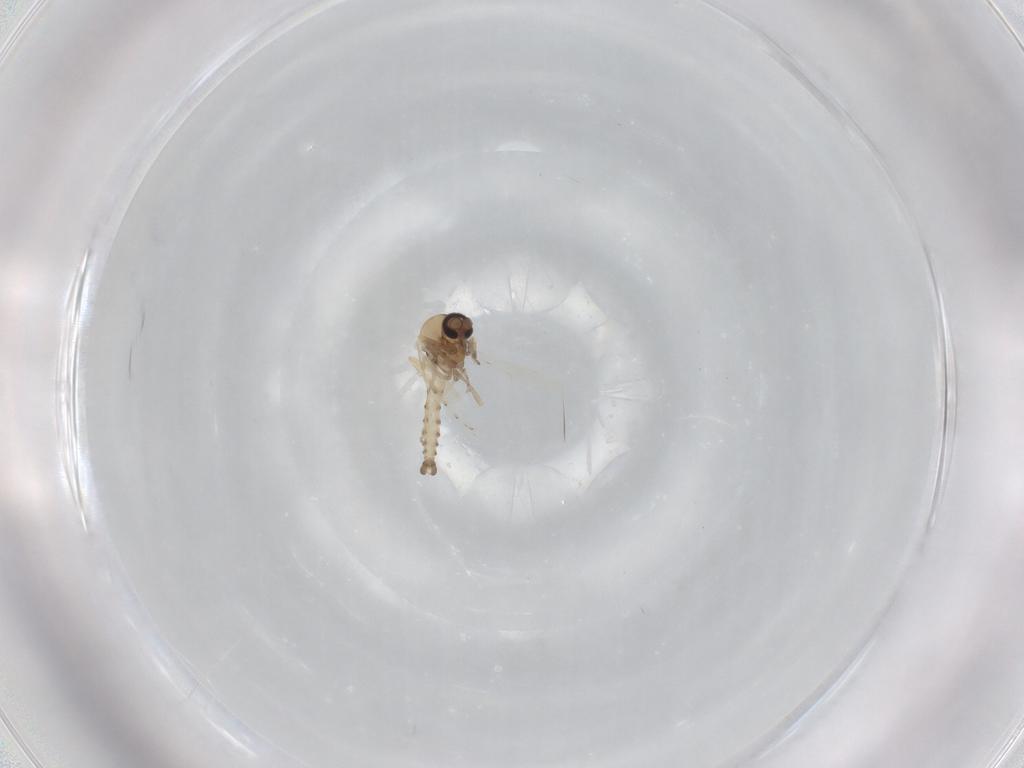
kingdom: Animalia
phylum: Arthropoda
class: Insecta
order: Diptera
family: Ceratopogonidae
